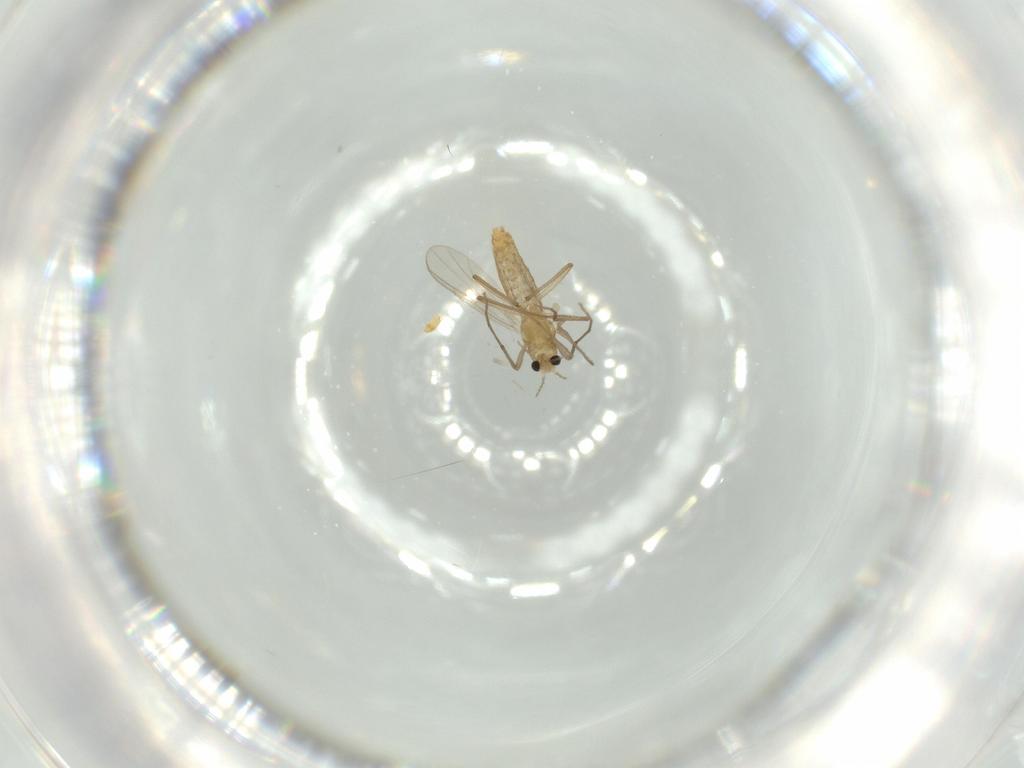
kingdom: Animalia
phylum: Arthropoda
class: Insecta
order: Diptera
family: Chironomidae
